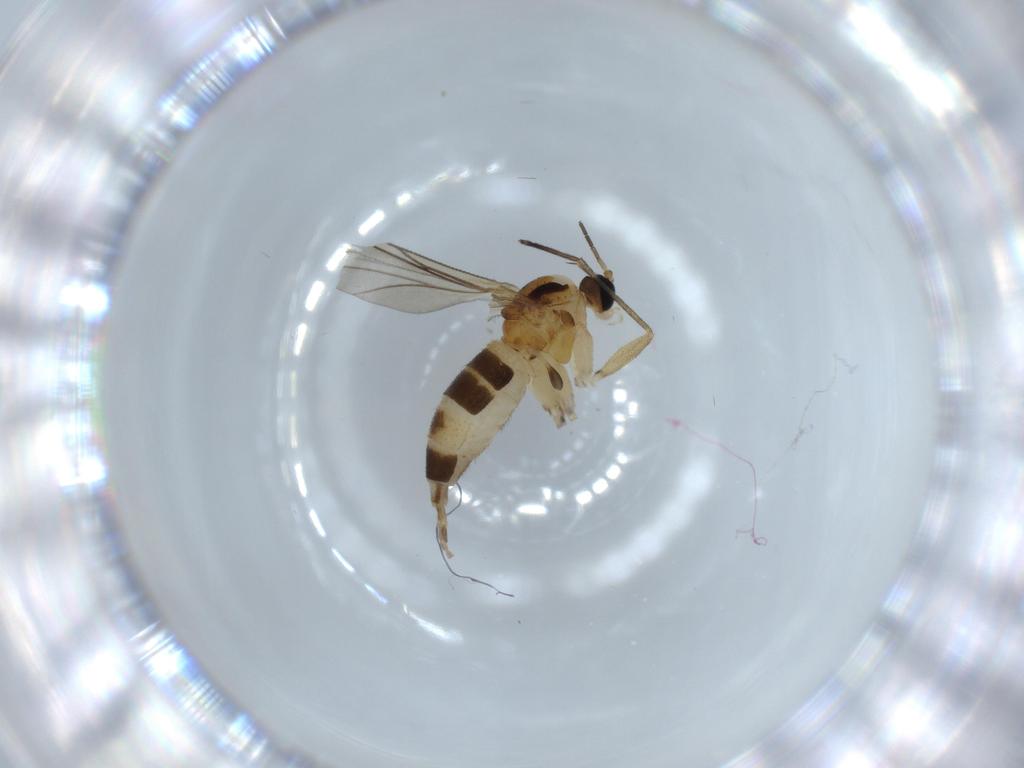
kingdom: Animalia
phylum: Arthropoda
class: Insecta
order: Diptera
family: Sciaridae
